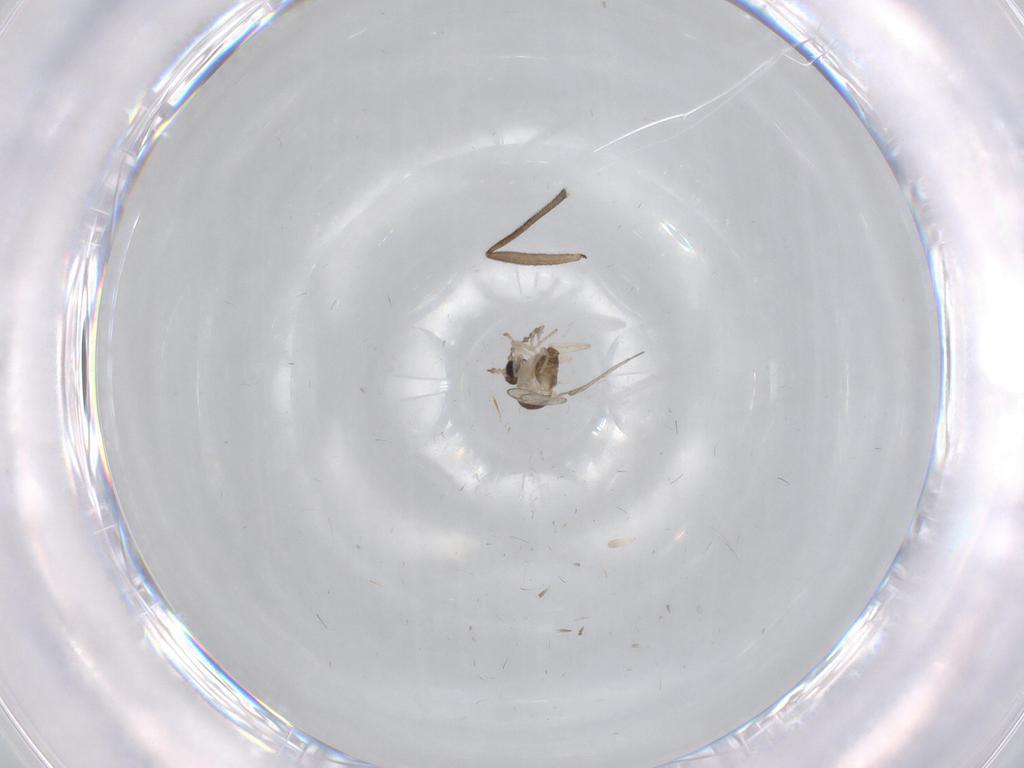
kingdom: Animalia
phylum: Arthropoda
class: Insecta
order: Diptera
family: Cecidomyiidae
